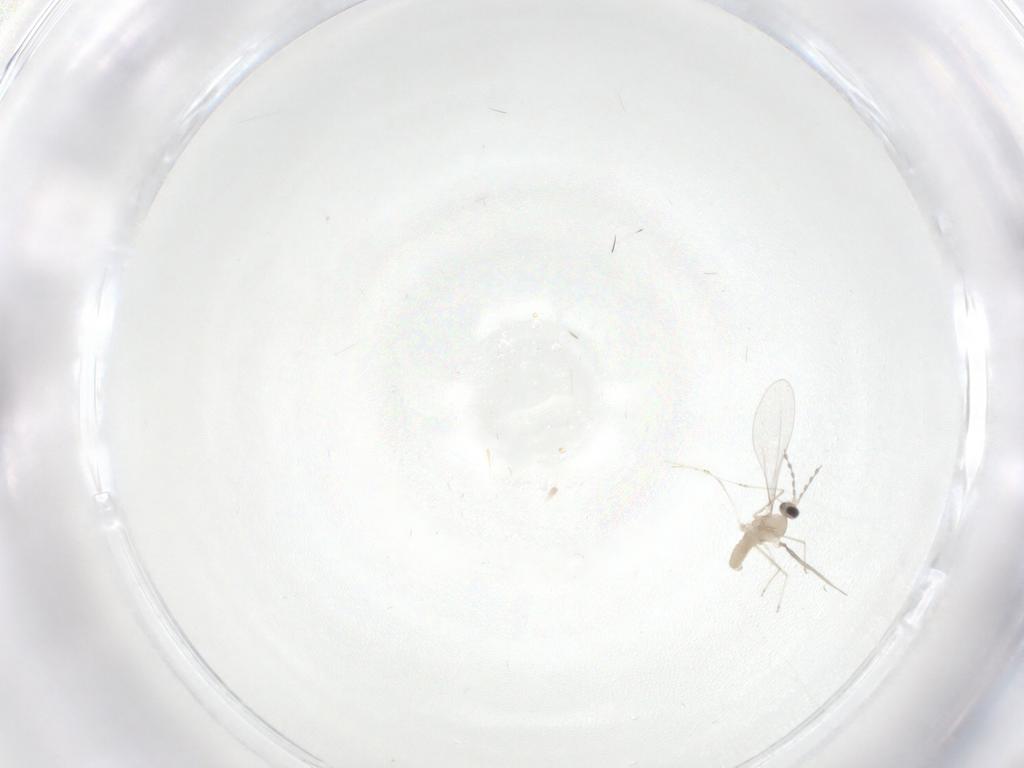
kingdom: Animalia
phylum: Arthropoda
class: Insecta
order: Diptera
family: Cecidomyiidae
